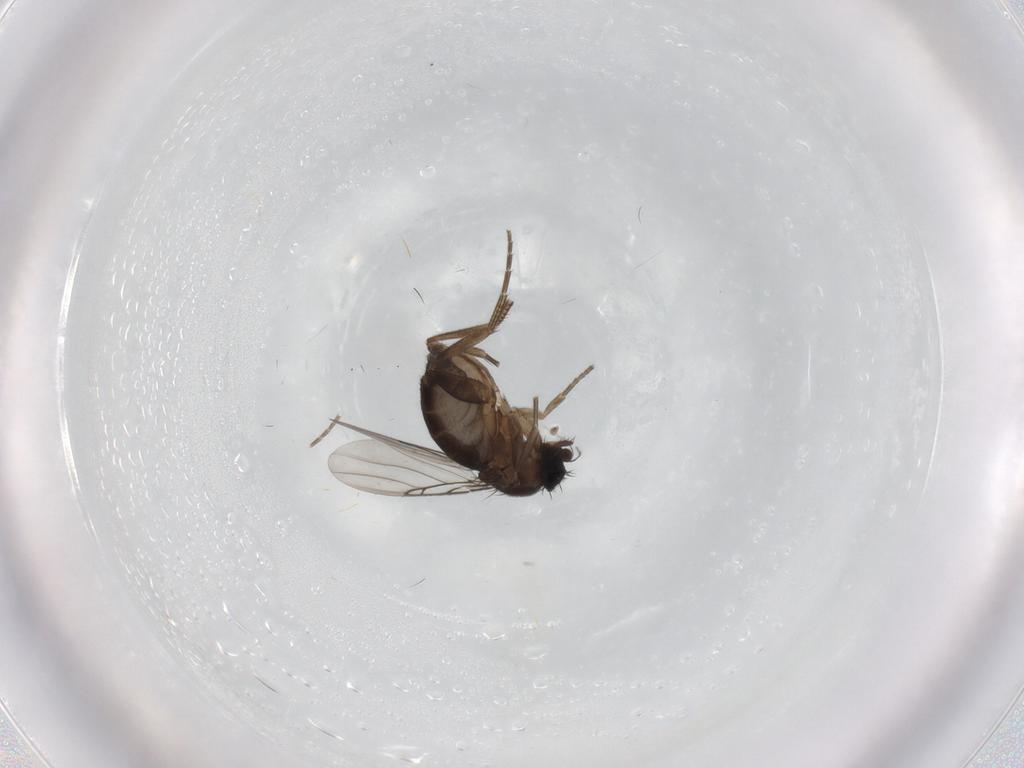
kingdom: Animalia
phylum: Arthropoda
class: Insecta
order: Diptera
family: Phoridae
